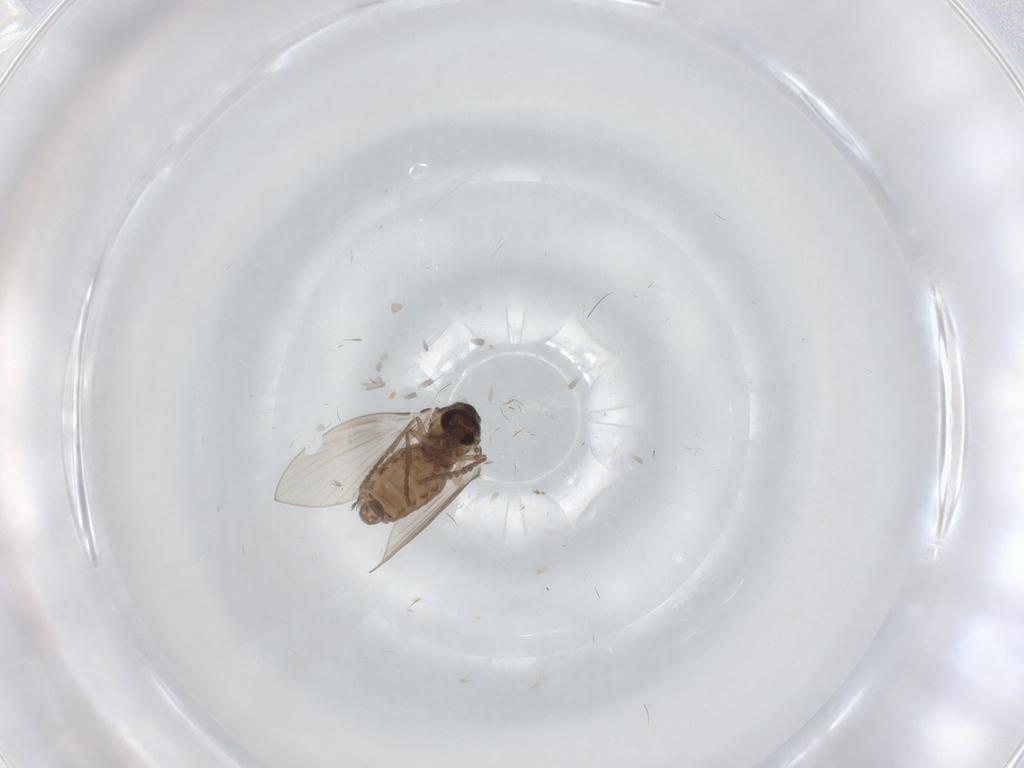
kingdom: Animalia
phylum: Arthropoda
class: Insecta
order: Diptera
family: Psychodidae
